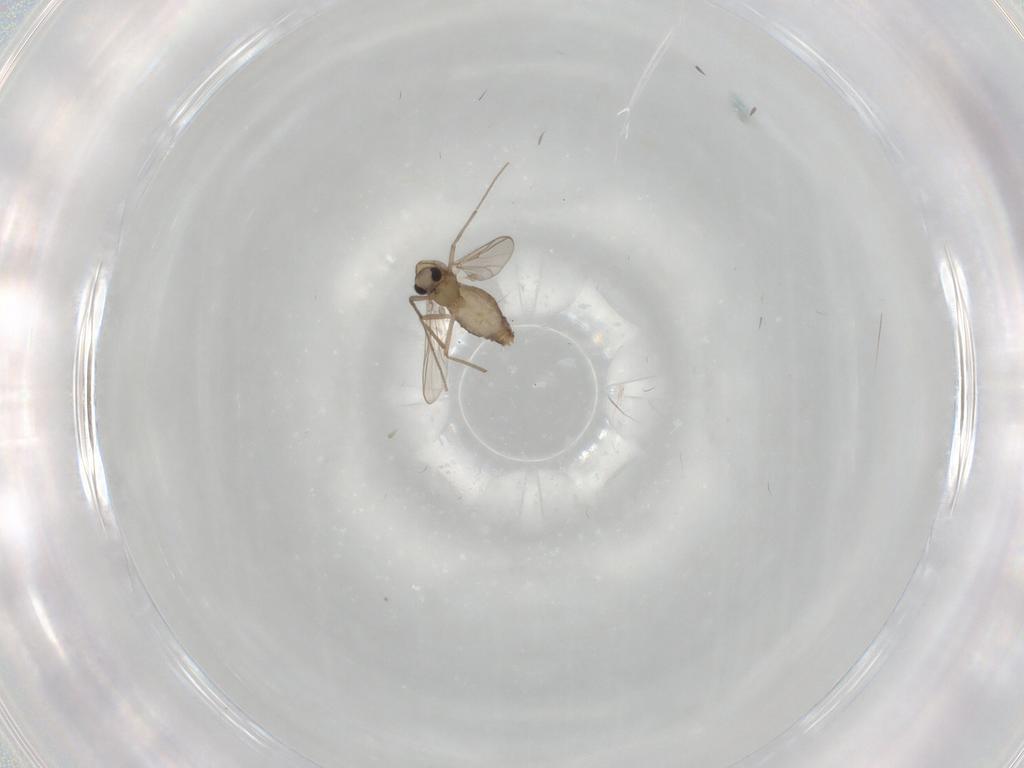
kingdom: Animalia
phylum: Arthropoda
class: Insecta
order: Diptera
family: Chironomidae
